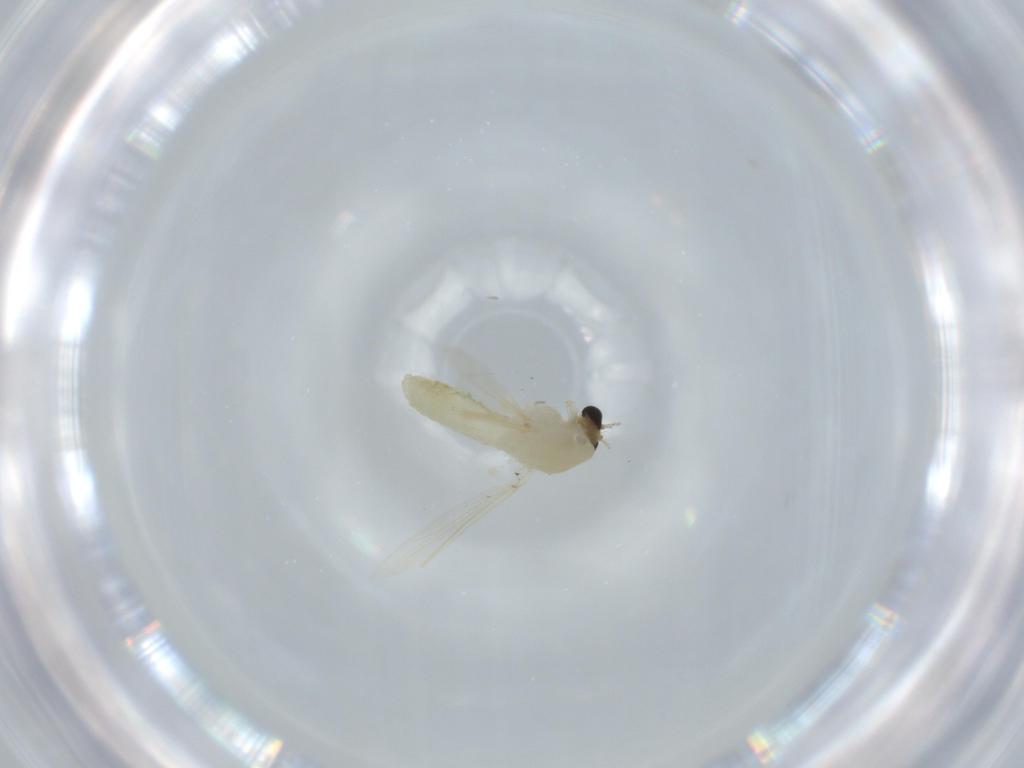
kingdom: Animalia
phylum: Arthropoda
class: Insecta
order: Diptera
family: Chironomidae
